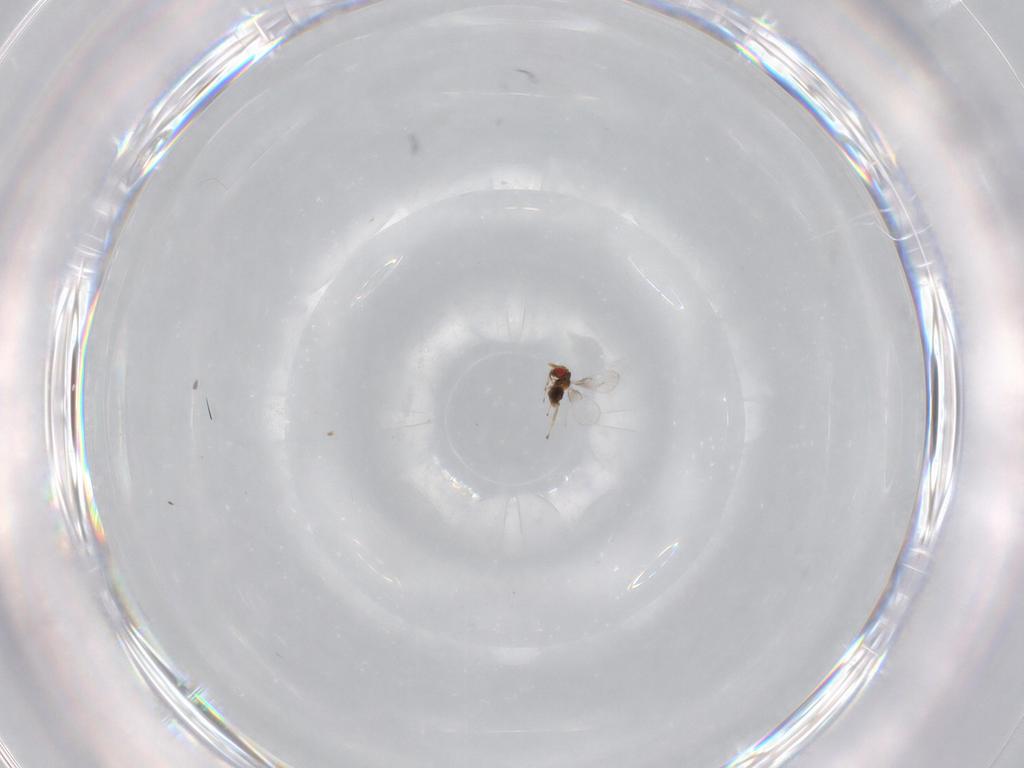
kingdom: Animalia
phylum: Arthropoda
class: Insecta
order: Hymenoptera
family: Trichogrammatidae
